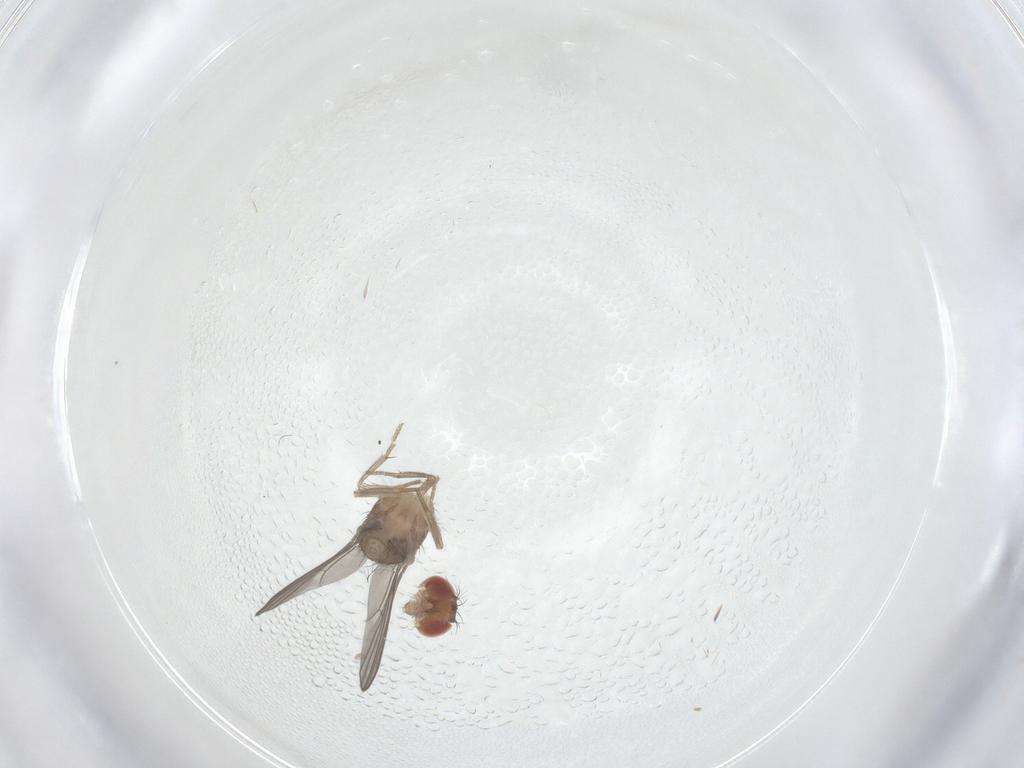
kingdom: Animalia
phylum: Arthropoda
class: Insecta
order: Diptera
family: Drosophilidae
